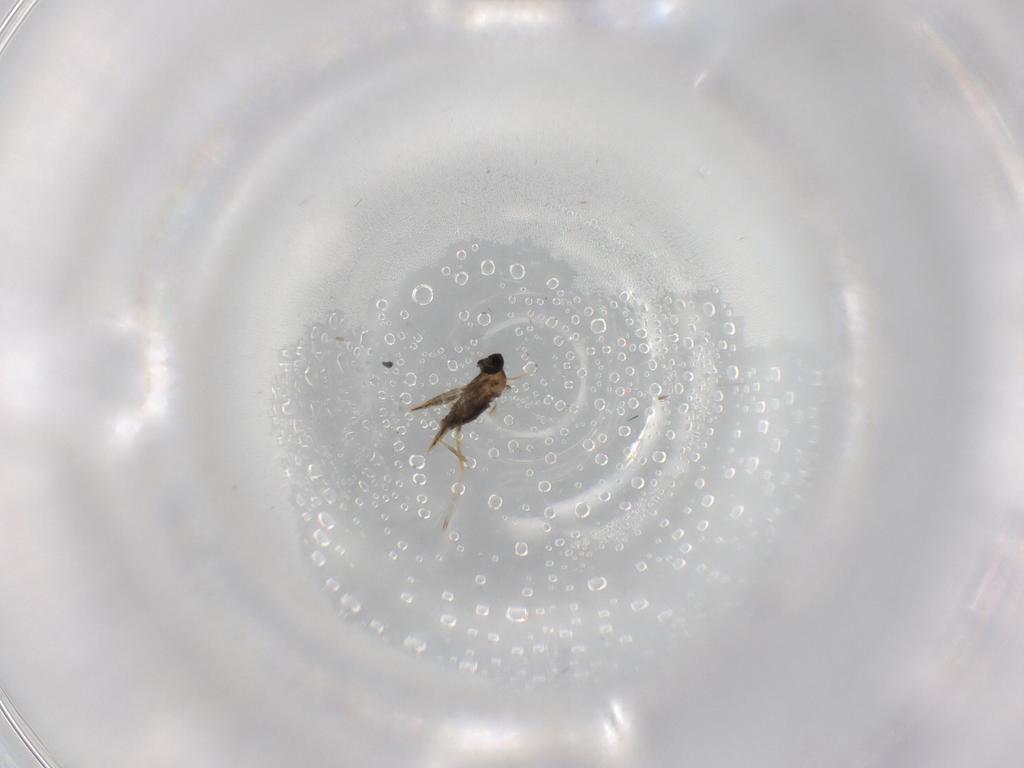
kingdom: Animalia
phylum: Arthropoda
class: Insecta
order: Diptera
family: Cecidomyiidae
